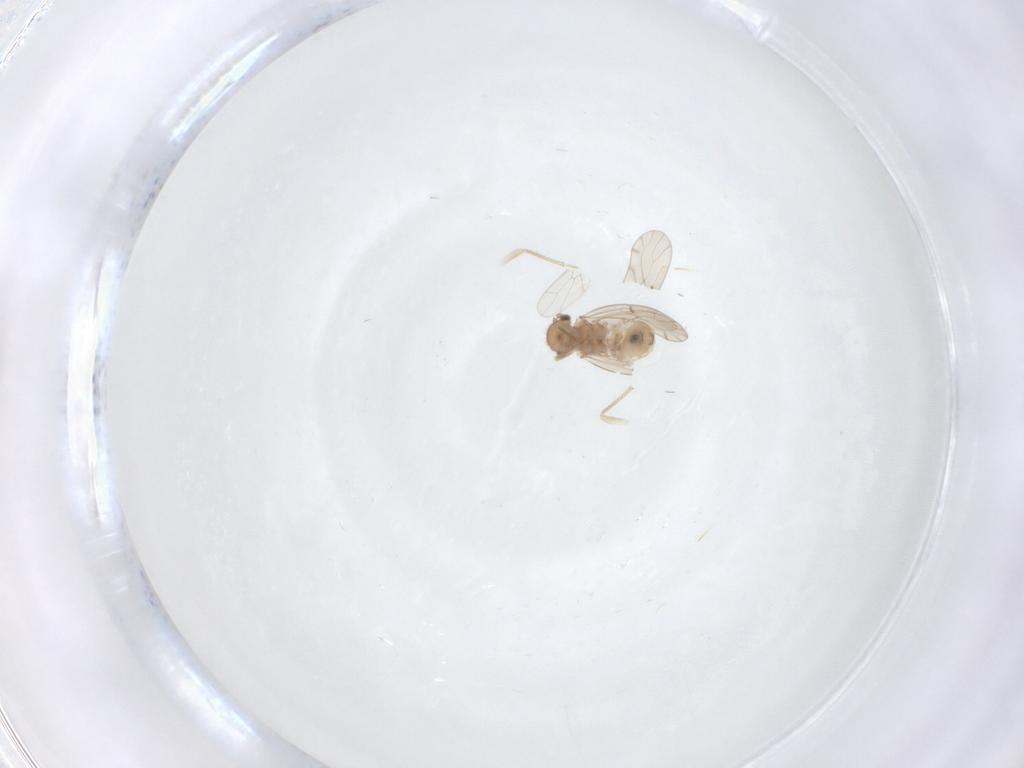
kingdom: Animalia
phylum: Arthropoda
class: Insecta
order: Psocodea
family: Ectopsocidae
